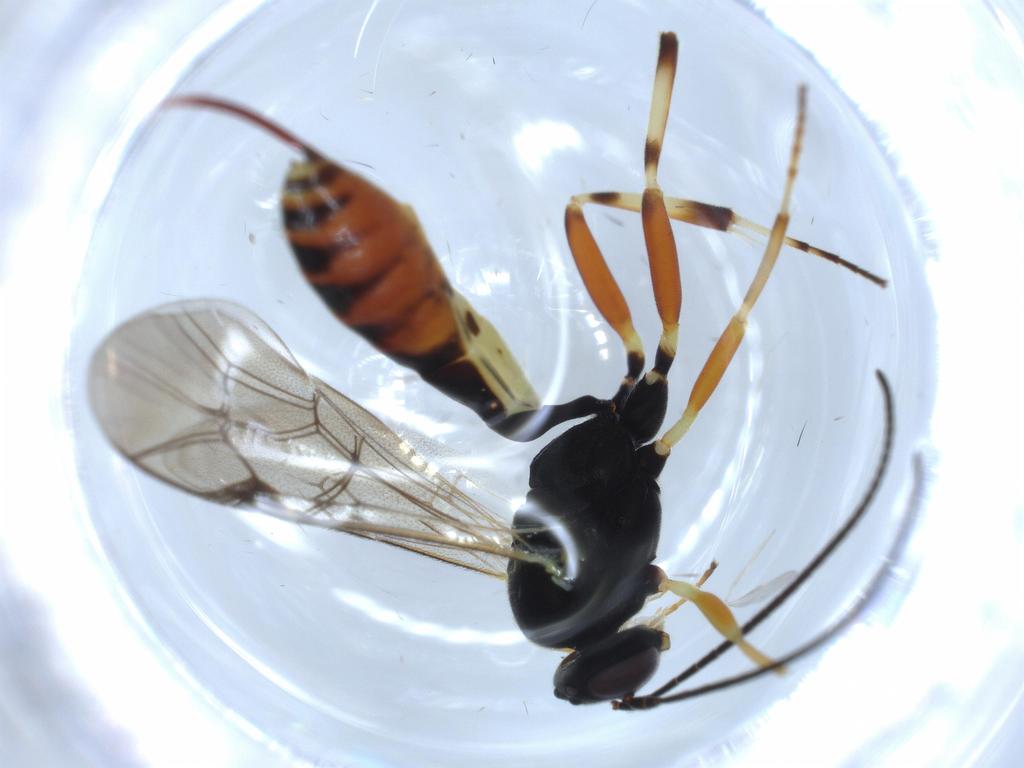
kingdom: Animalia
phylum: Arthropoda
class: Insecta
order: Hymenoptera
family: Ichneumonidae
